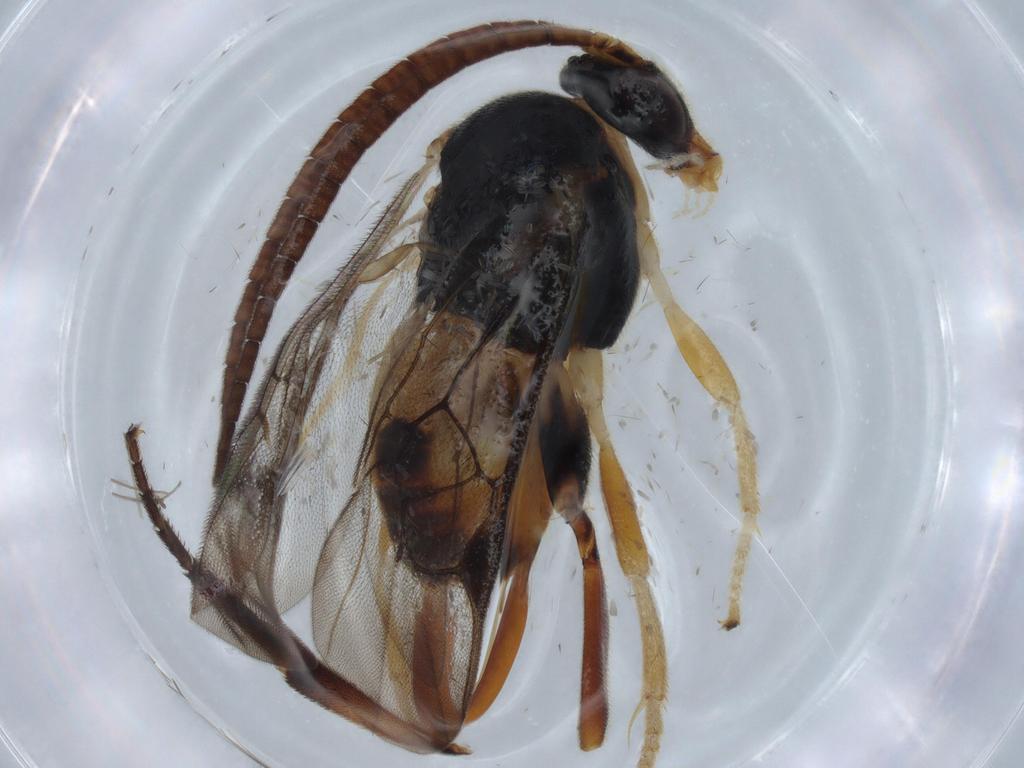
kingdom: Animalia
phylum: Arthropoda
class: Insecta
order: Hymenoptera
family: Braconidae
